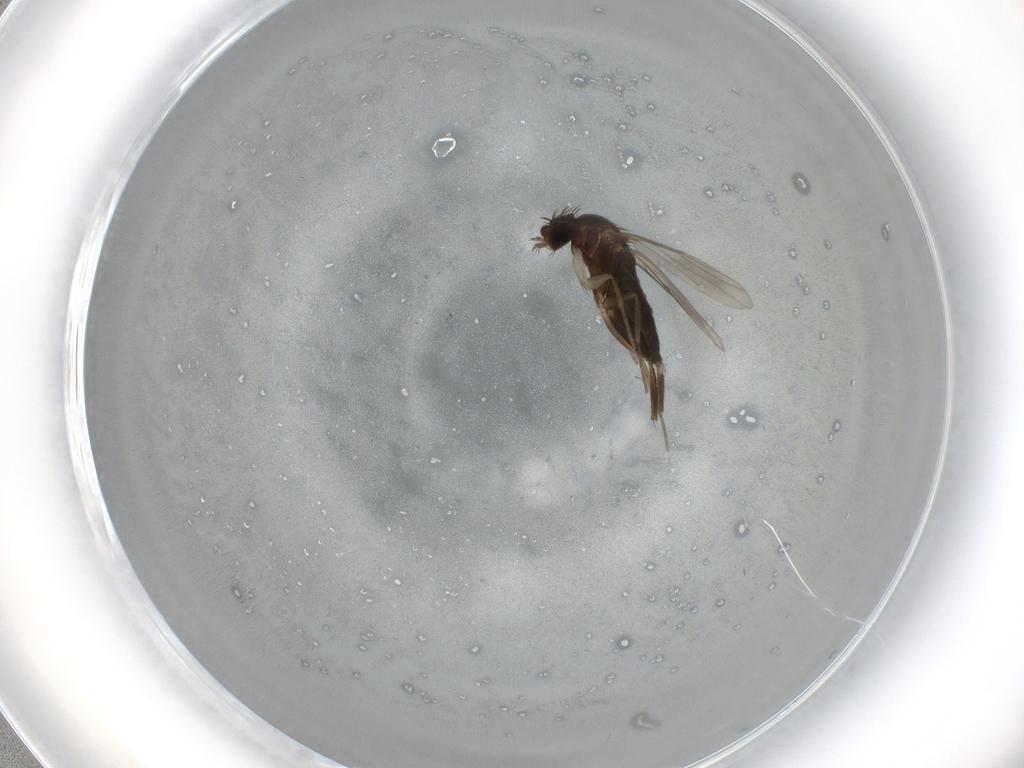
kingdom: Animalia
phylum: Arthropoda
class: Insecta
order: Diptera
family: Phoridae
